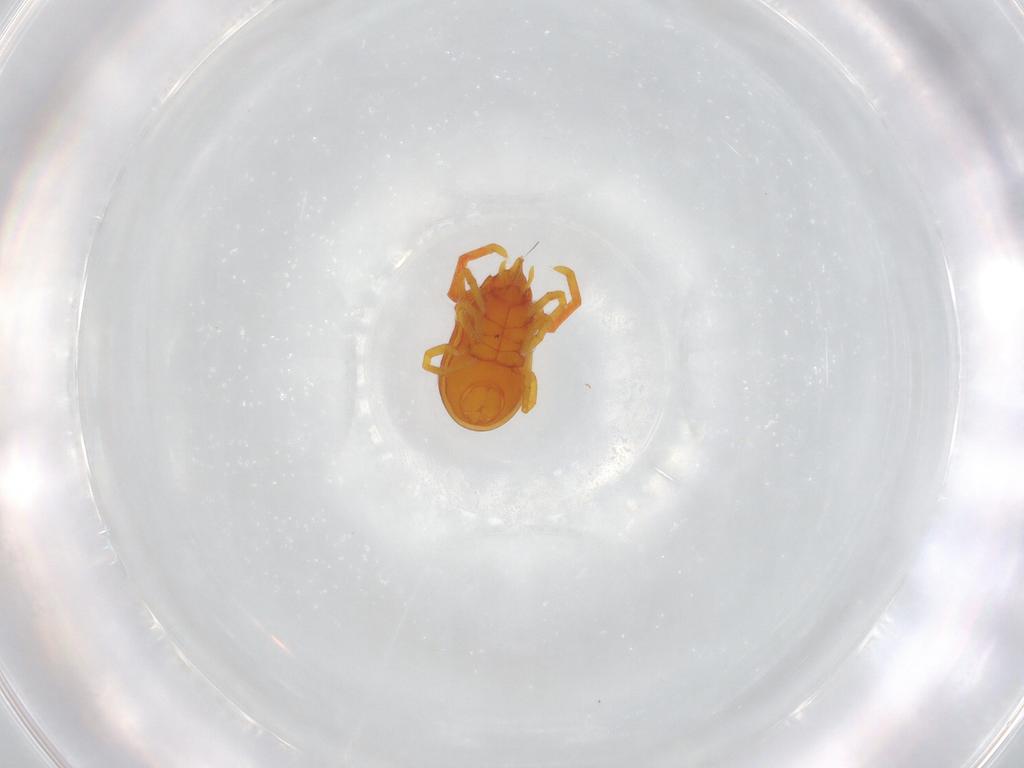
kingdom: Animalia
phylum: Arthropoda
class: Arachnida
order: Trombidiformes
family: Labidostommidae
